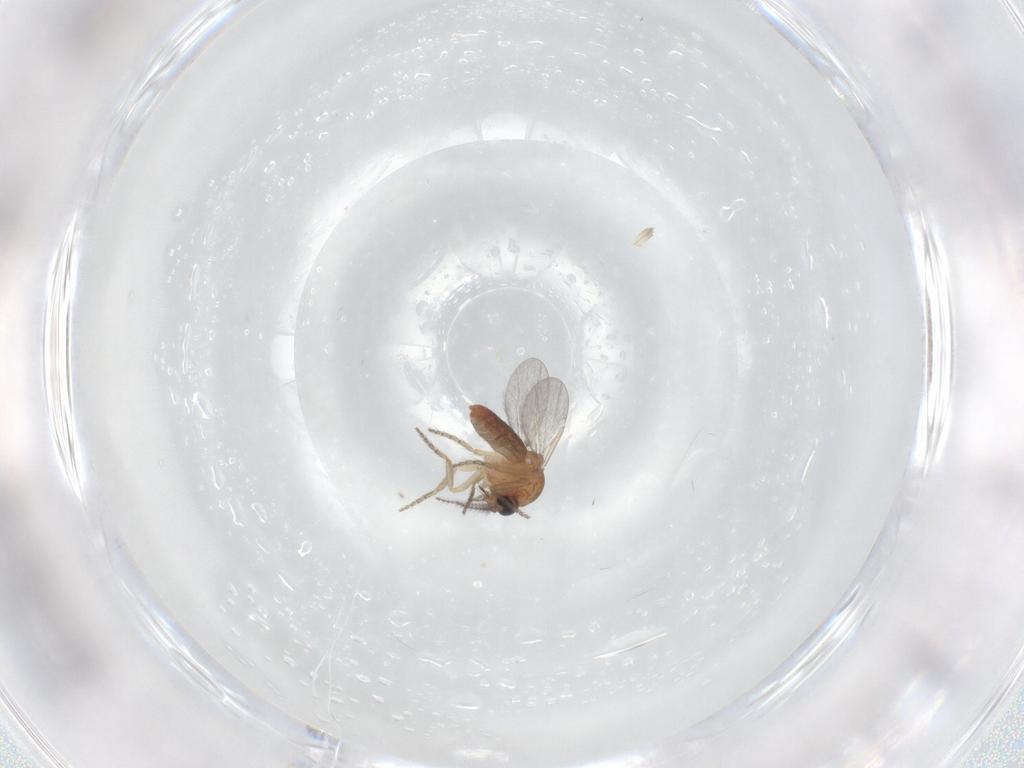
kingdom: Animalia
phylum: Arthropoda
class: Insecta
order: Diptera
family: Ceratopogonidae
